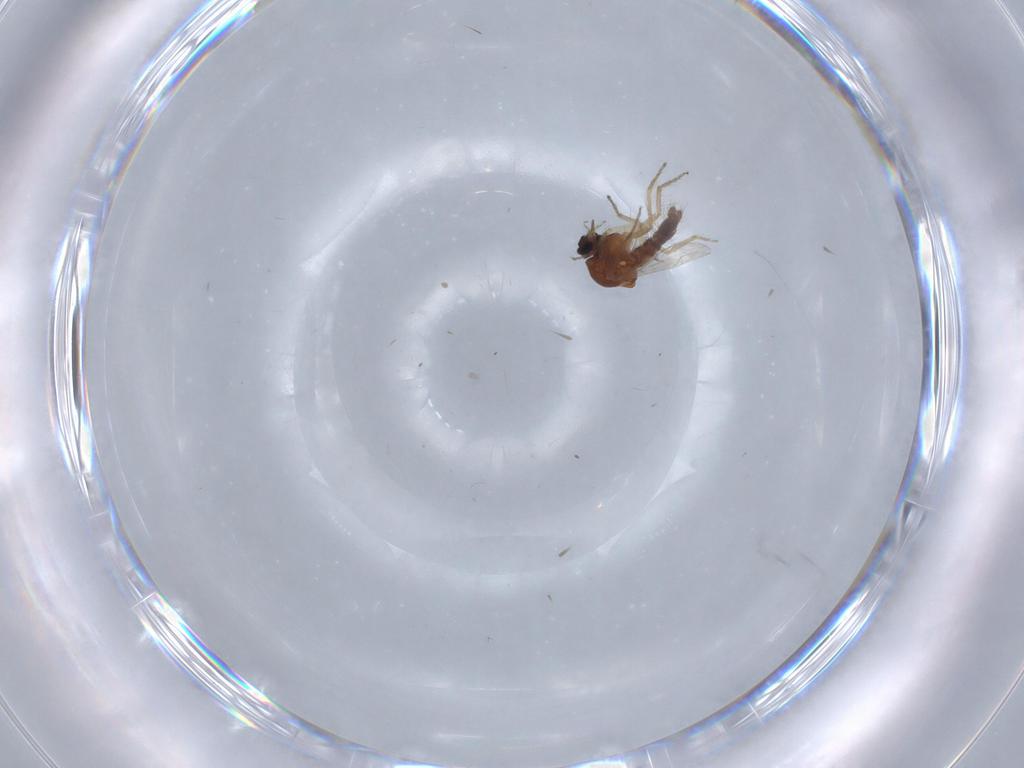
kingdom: Animalia
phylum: Arthropoda
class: Insecta
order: Diptera
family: Ceratopogonidae
